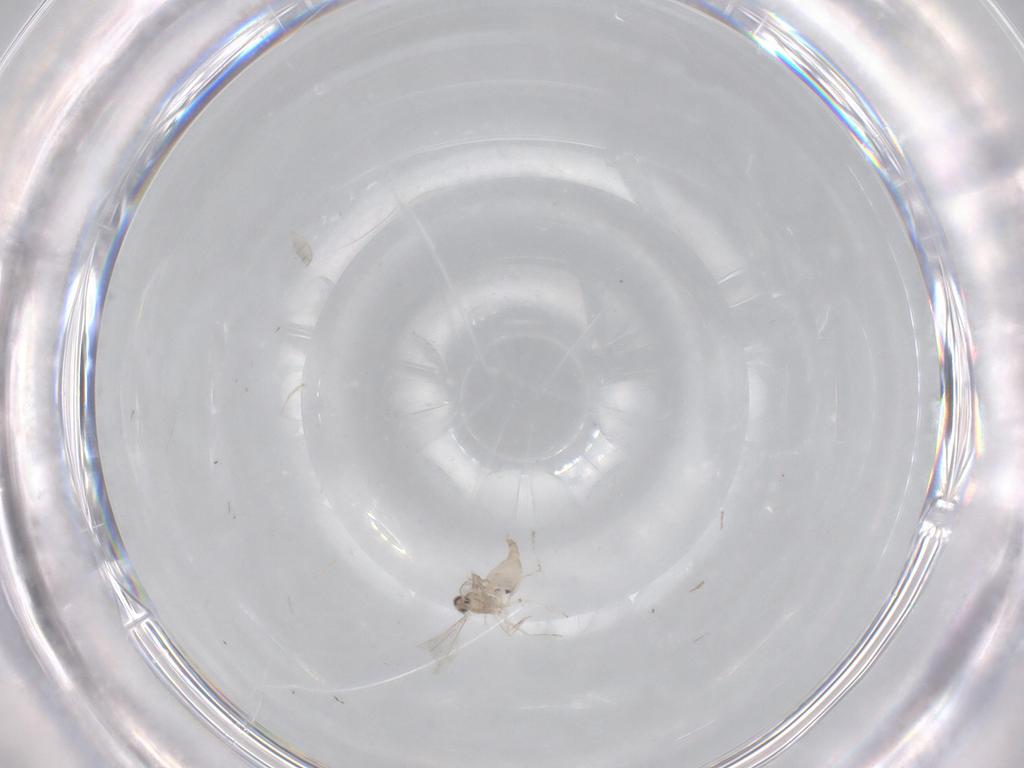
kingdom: Animalia
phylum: Arthropoda
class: Insecta
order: Diptera
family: Cecidomyiidae
